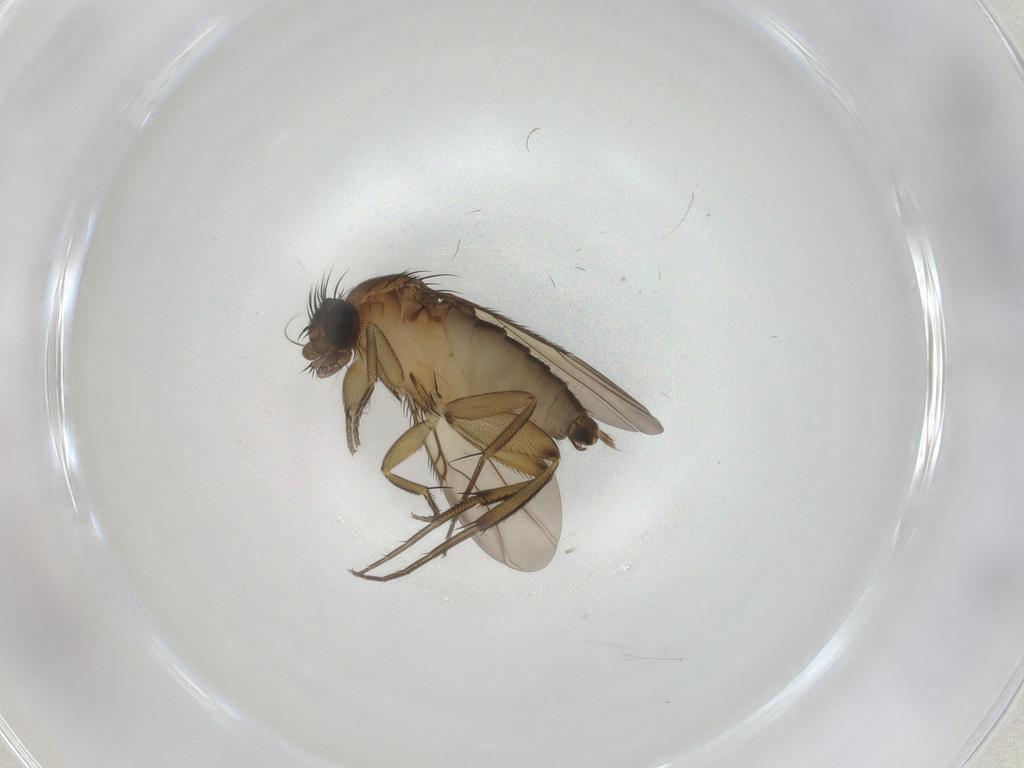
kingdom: Animalia
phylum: Arthropoda
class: Insecta
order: Diptera
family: Phoridae
